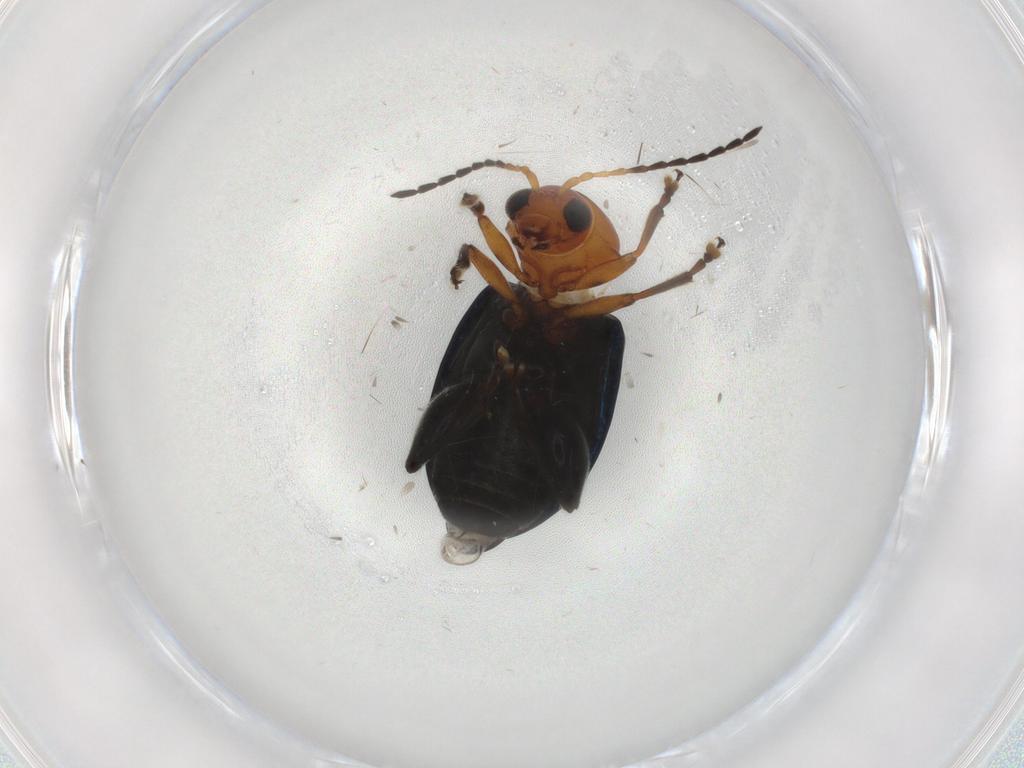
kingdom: Animalia
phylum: Arthropoda
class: Insecta
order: Coleoptera
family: Chrysomelidae
